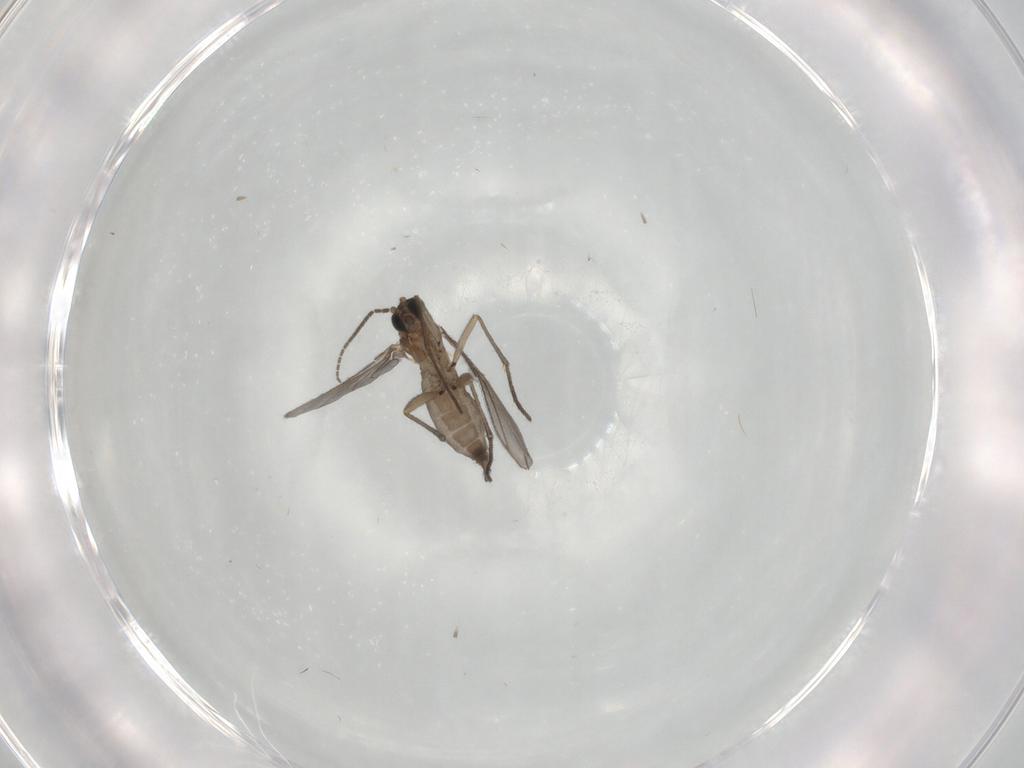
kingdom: Animalia
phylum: Arthropoda
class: Insecta
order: Diptera
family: Sciaridae
